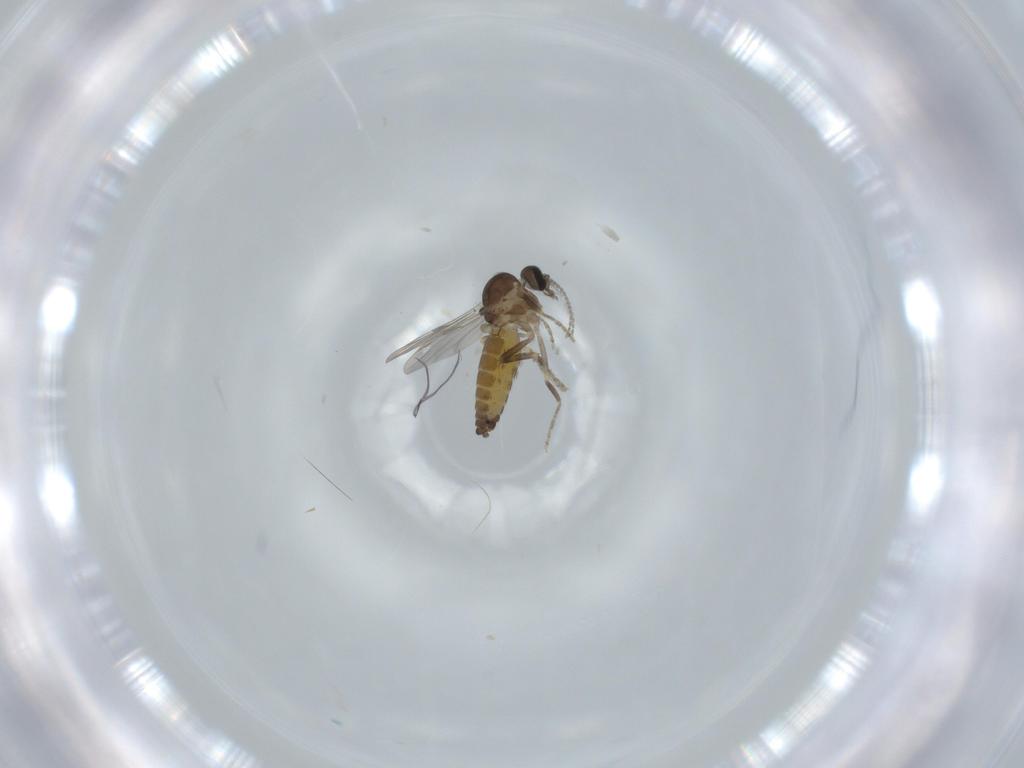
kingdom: Animalia
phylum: Arthropoda
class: Insecta
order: Diptera
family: Ceratopogonidae
